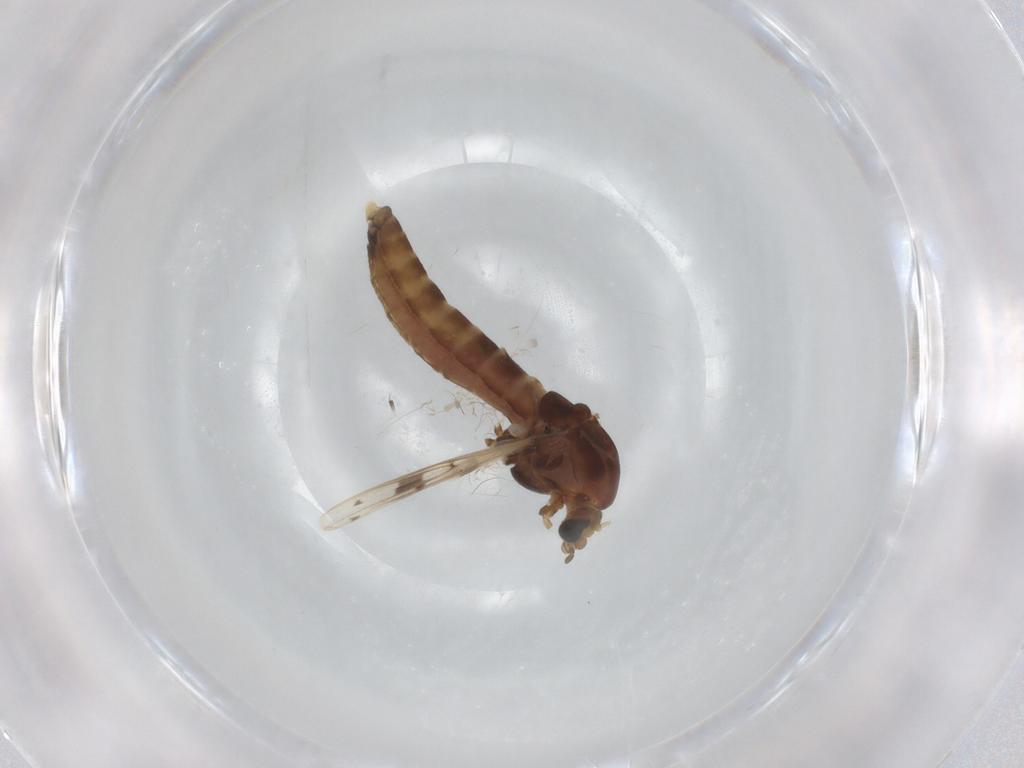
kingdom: Animalia
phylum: Arthropoda
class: Insecta
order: Diptera
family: Cecidomyiidae
